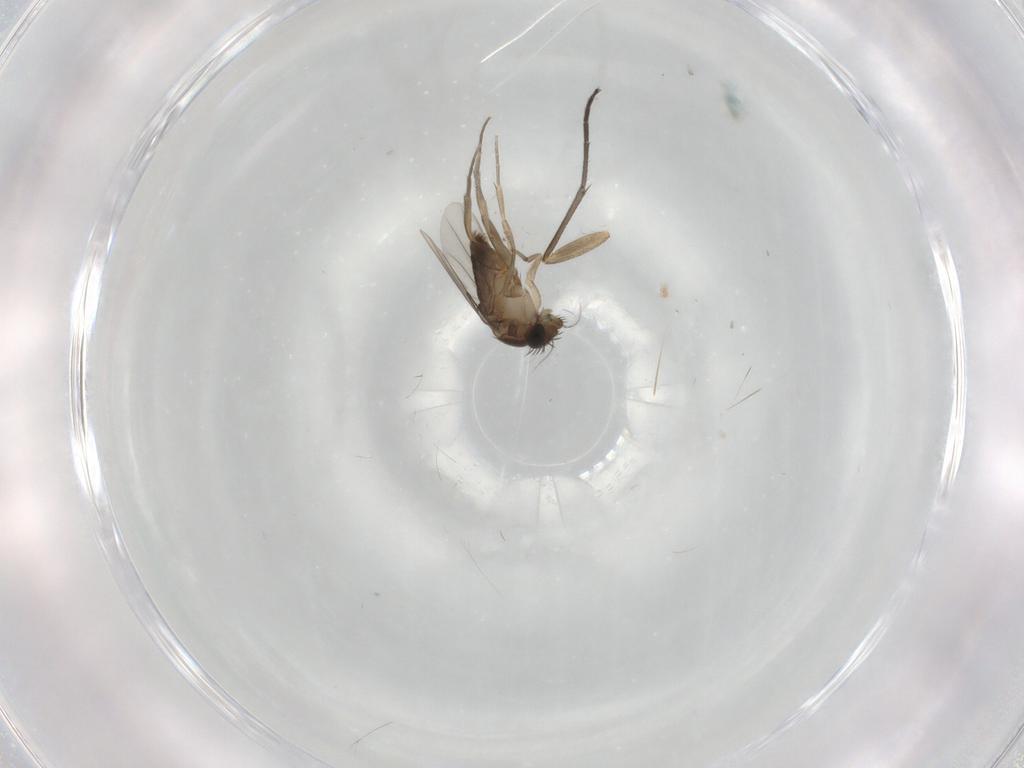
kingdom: Animalia
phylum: Arthropoda
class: Insecta
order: Diptera
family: Phoridae
